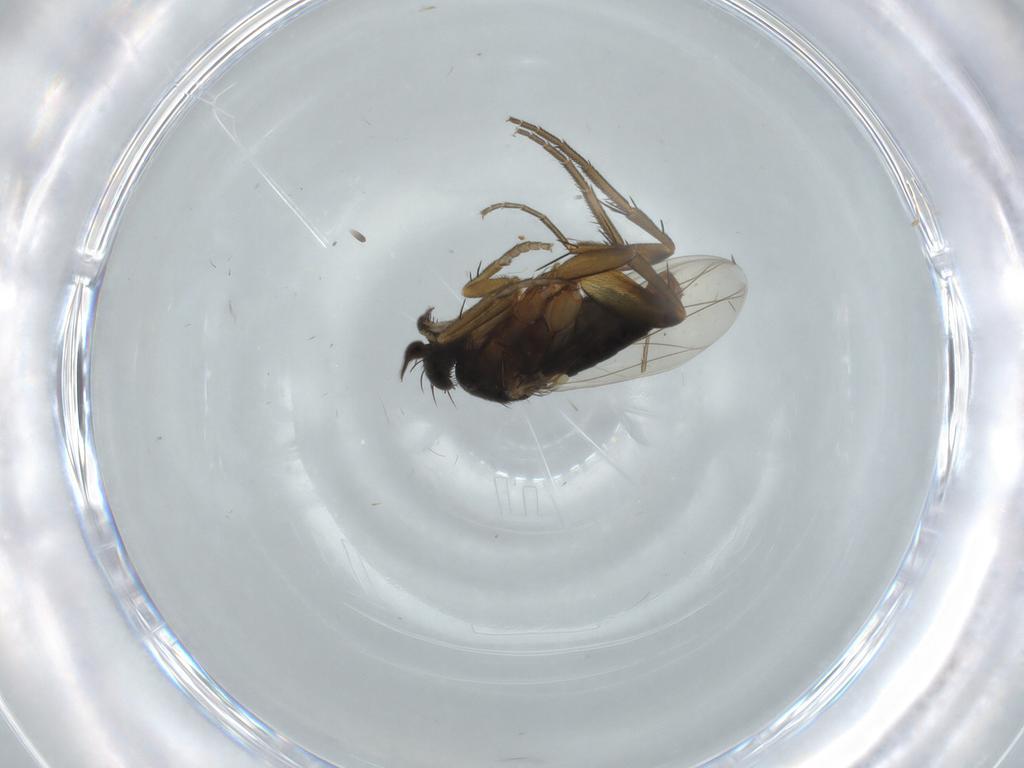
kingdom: Animalia
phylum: Arthropoda
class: Insecta
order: Diptera
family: Phoridae
